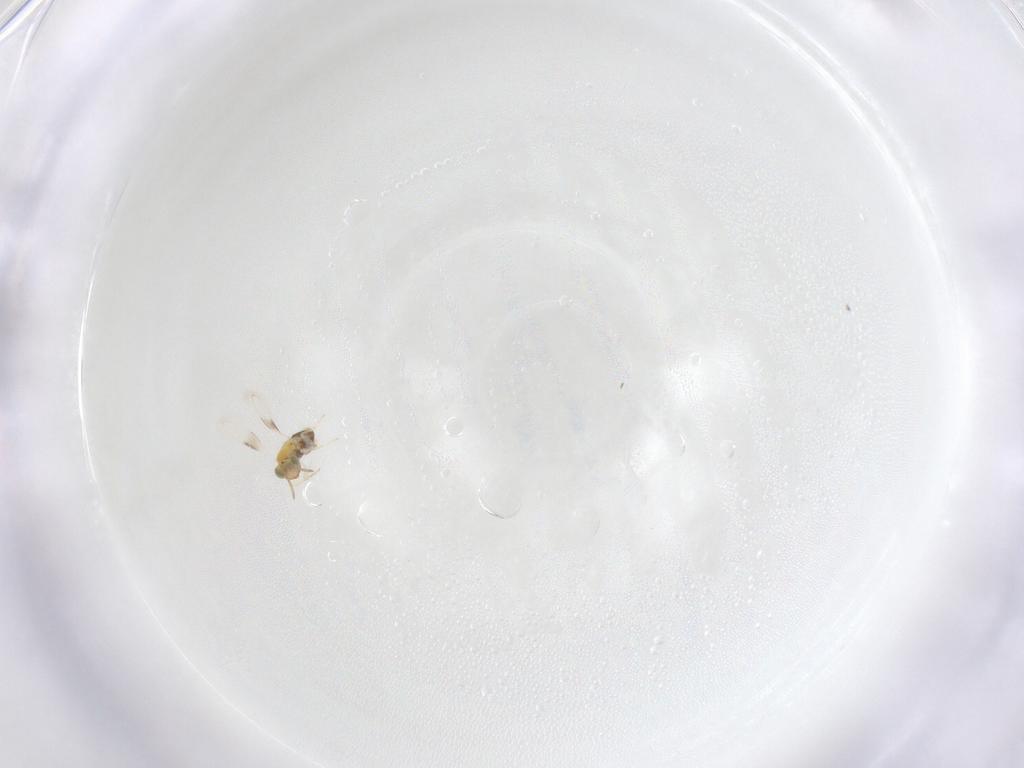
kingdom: Animalia
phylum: Arthropoda
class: Insecta
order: Hymenoptera
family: Aphelinidae
